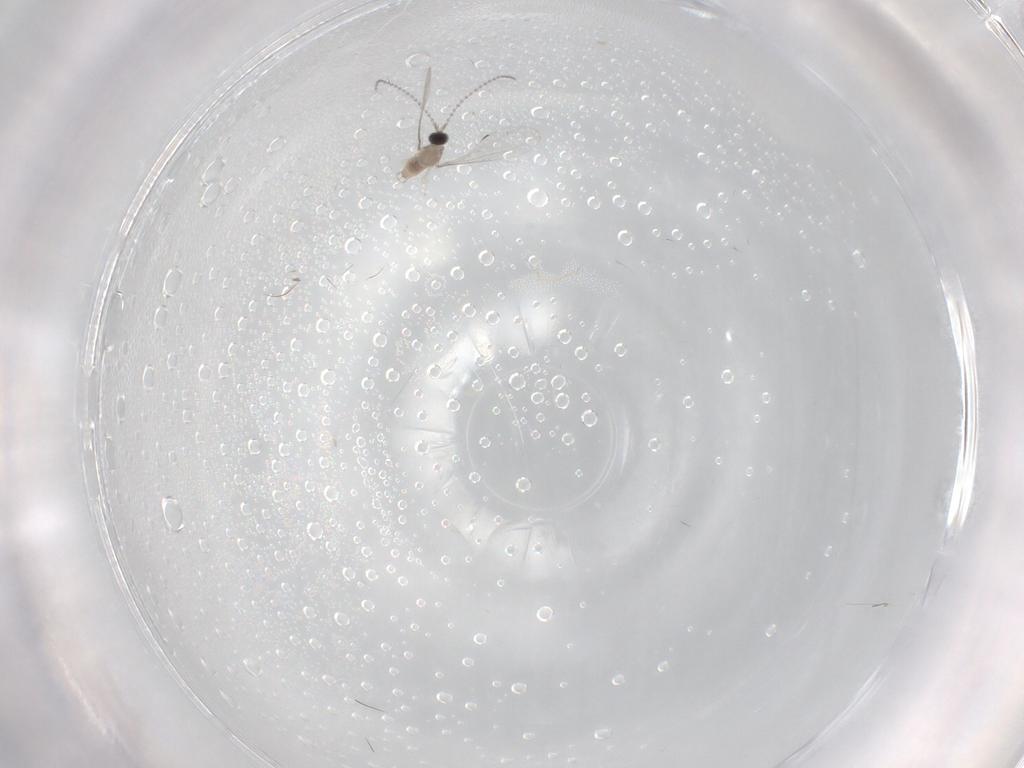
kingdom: Animalia
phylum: Arthropoda
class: Insecta
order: Diptera
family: Cecidomyiidae
